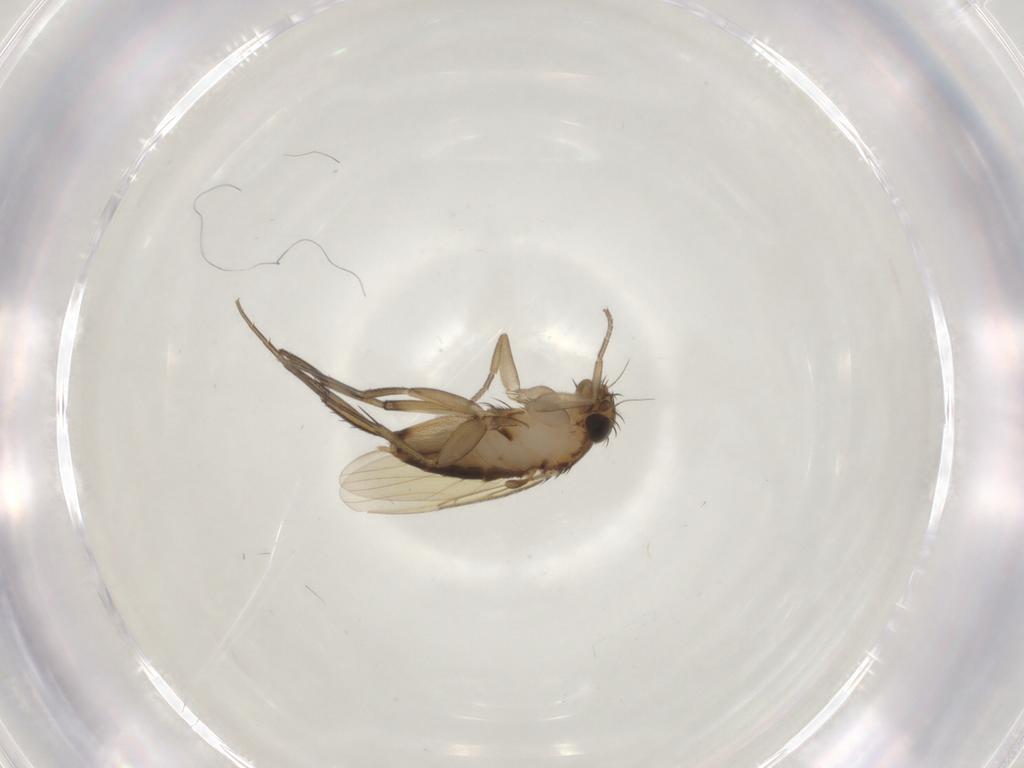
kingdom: Animalia
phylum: Arthropoda
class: Insecta
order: Diptera
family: Phoridae
